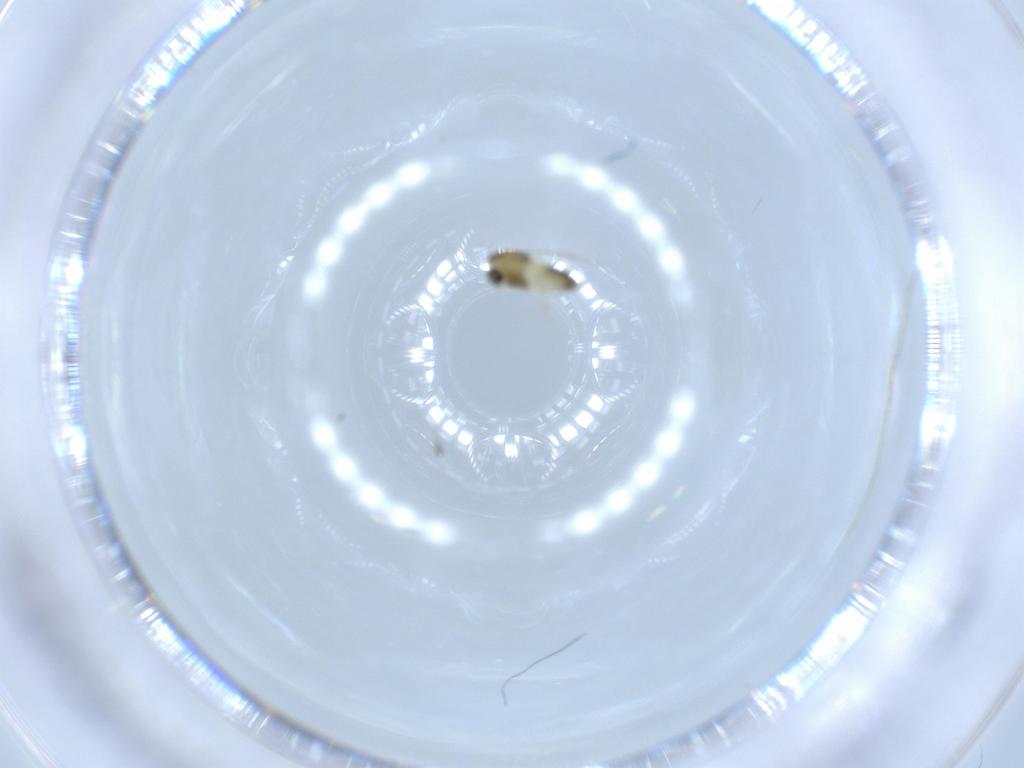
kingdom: Animalia
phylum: Arthropoda
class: Insecta
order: Diptera
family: Chironomidae
